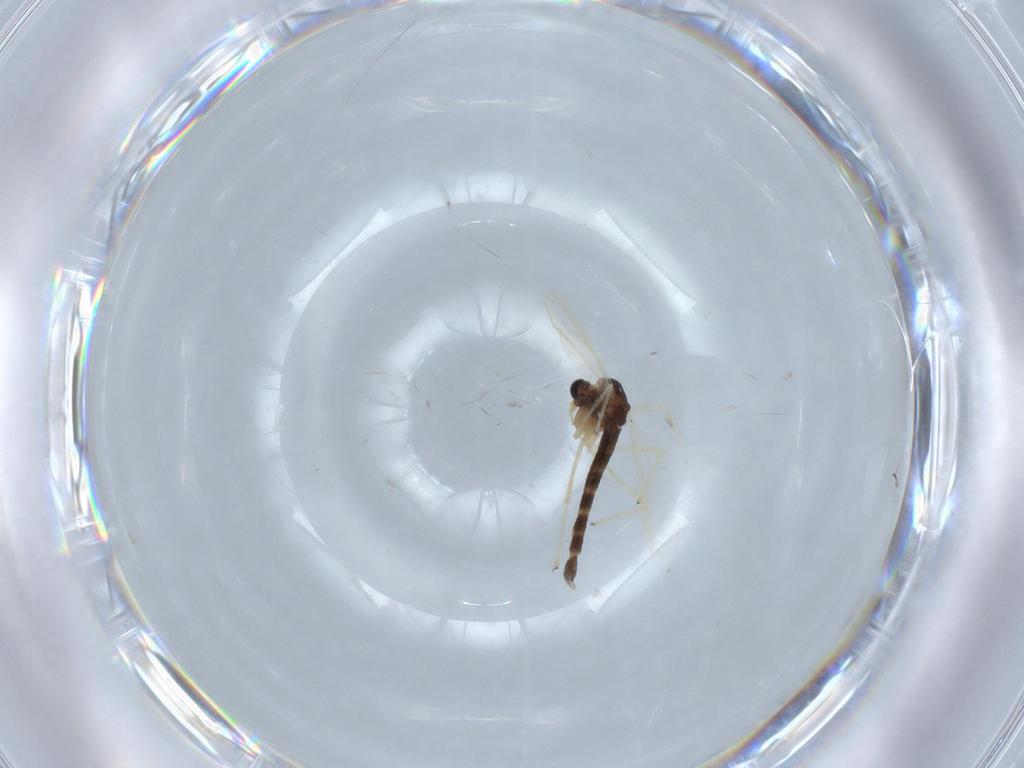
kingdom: Animalia
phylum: Arthropoda
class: Insecta
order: Diptera
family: Chironomidae
